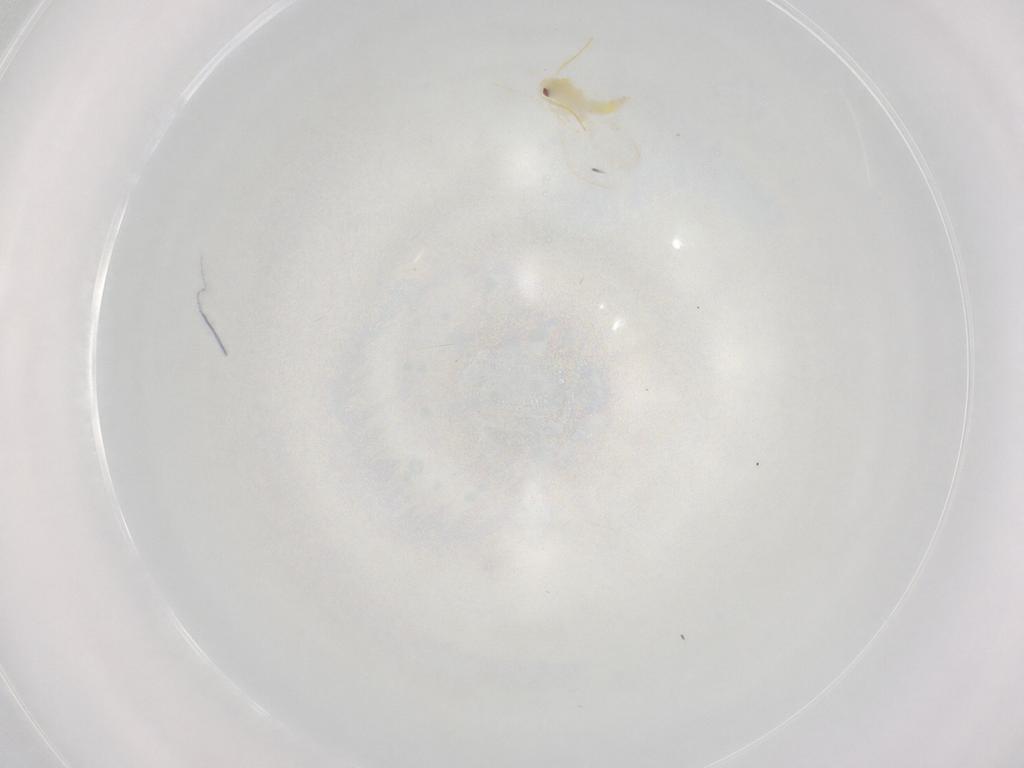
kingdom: Animalia
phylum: Arthropoda
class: Insecta
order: Hemiptera
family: Aleyrodidae
